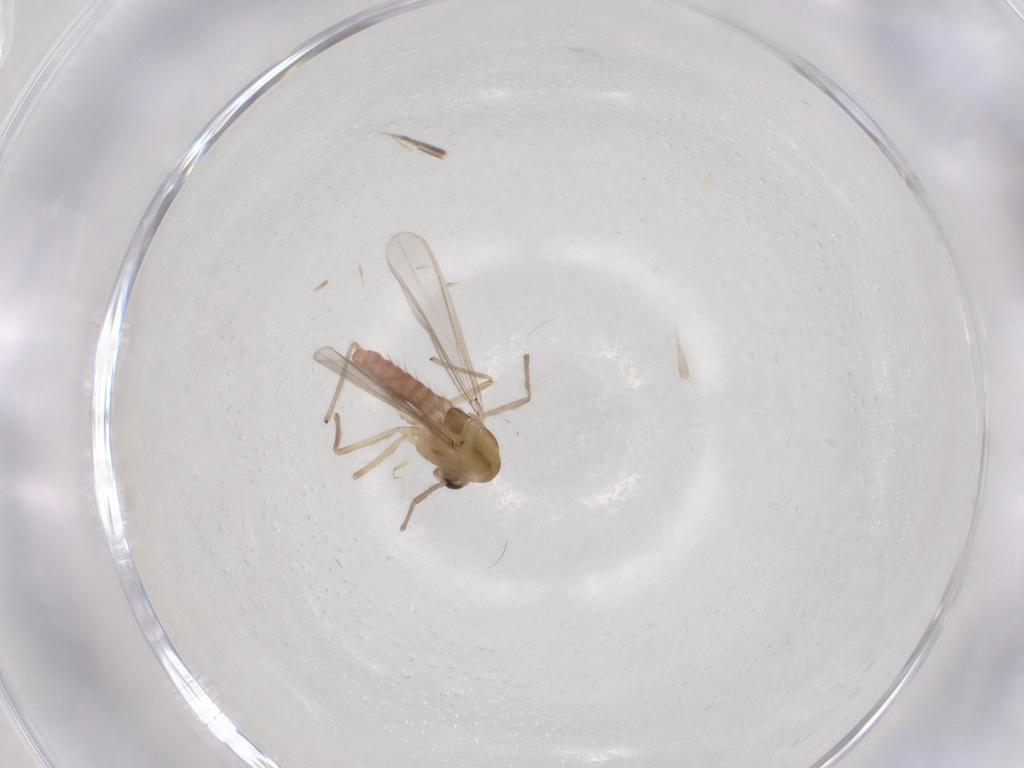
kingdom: Animalia
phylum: Arthropoda
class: Insecta
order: Diptera
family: Chironomidae
